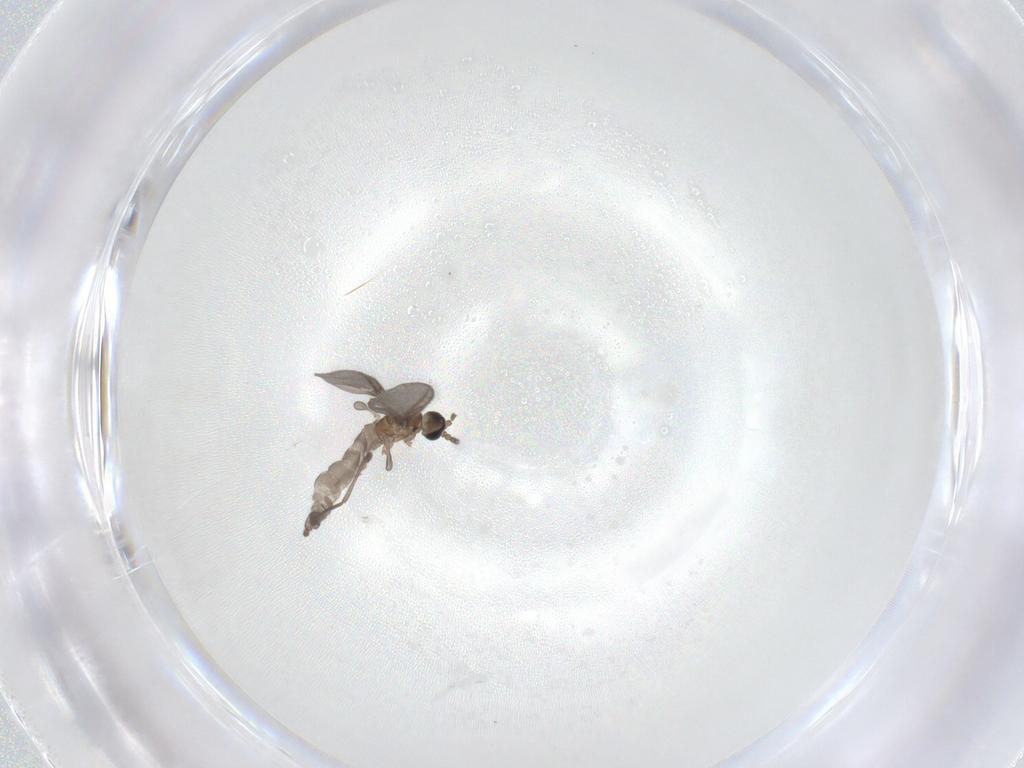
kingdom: Animalia
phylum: Arthropoda
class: Insecta
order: Diptera
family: Sciaridae
